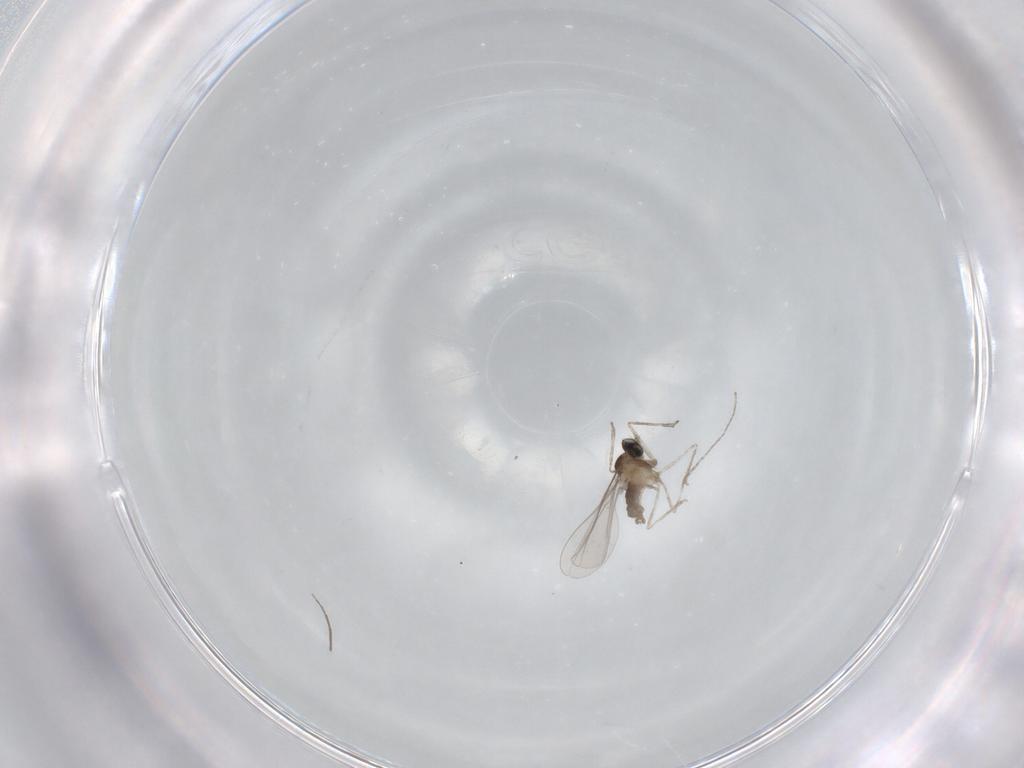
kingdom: Animalia
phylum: Arthropoda
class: Insecta
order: Diptera
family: Cecidomyiidae
